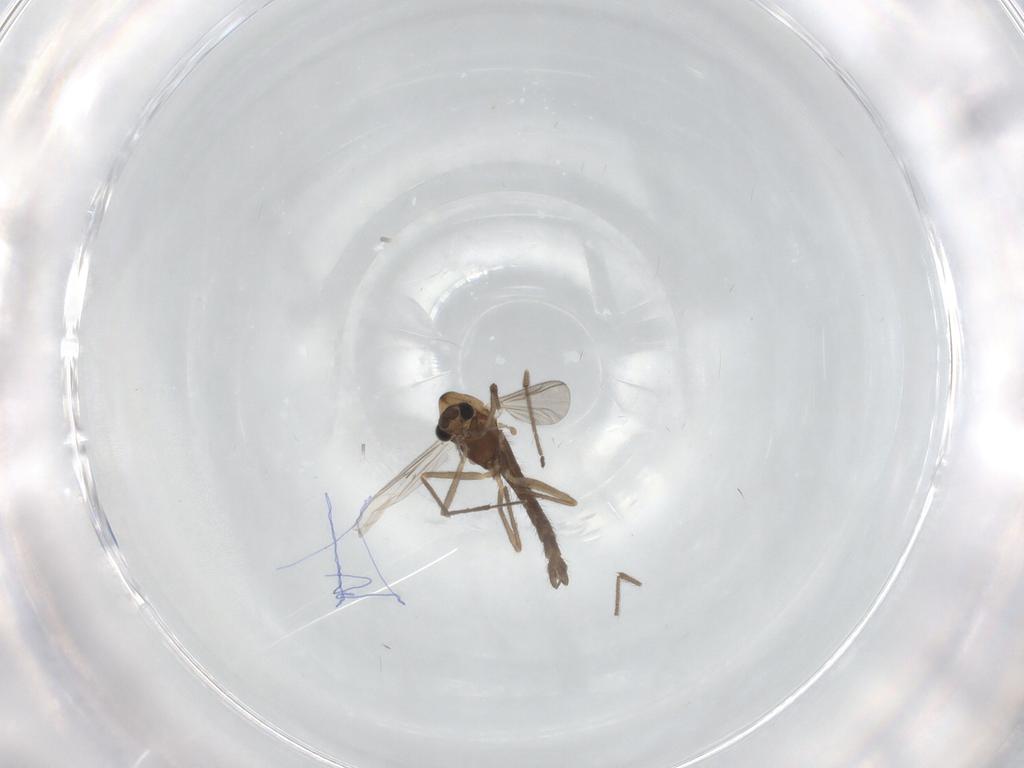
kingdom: Animalia
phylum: Arthropoda
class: Insecta
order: Diptera
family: Chironomidae
